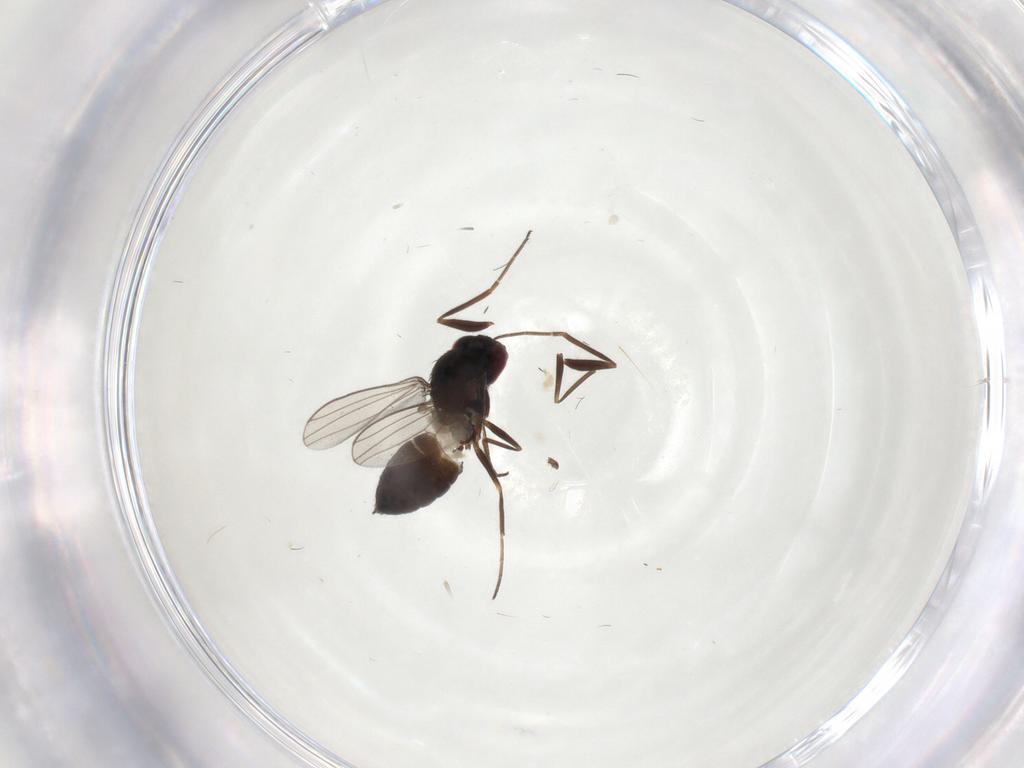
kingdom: Animalia
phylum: Arthropoda
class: Insecta
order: Diptera
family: Dolichopodidae
